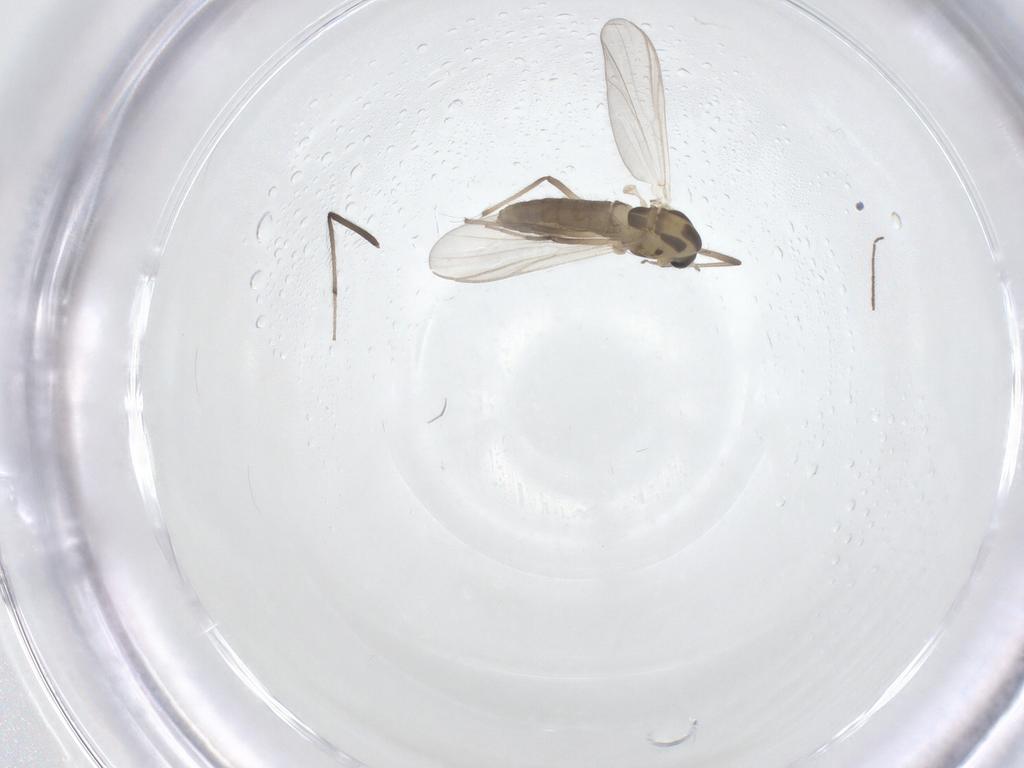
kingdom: Animalia
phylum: Arthropoda
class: Insecta
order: Diptera
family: Chironomidae
